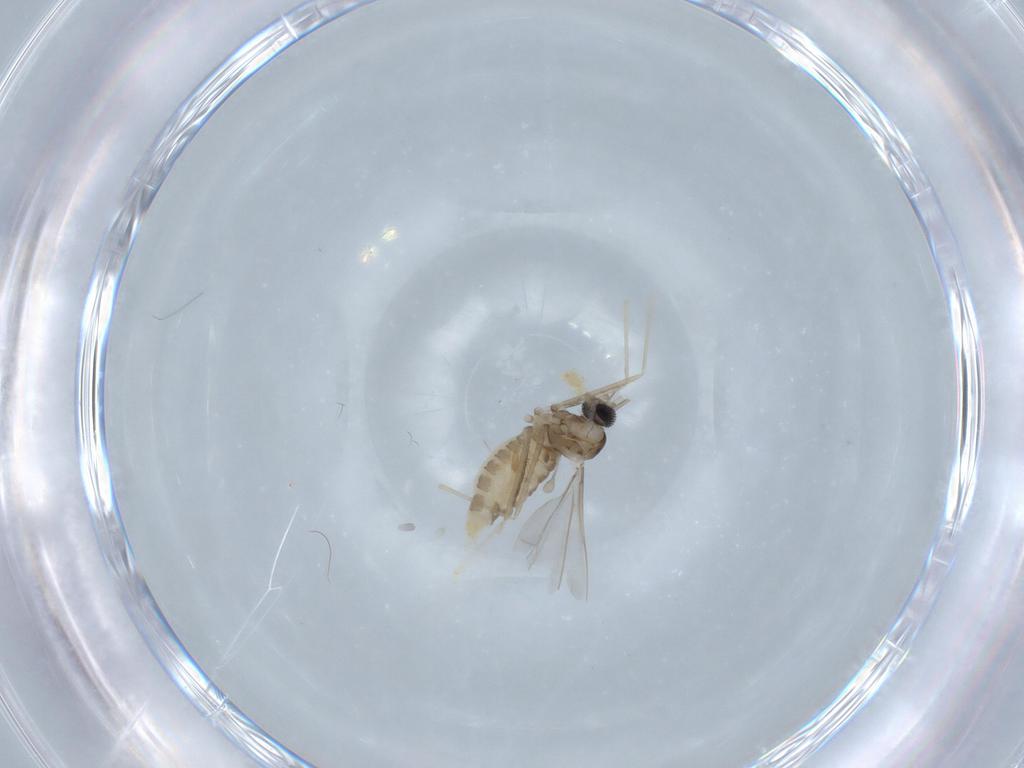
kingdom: Animalia
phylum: Arthropoda
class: Insecta
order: Diptera
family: Cecidomyiidae
